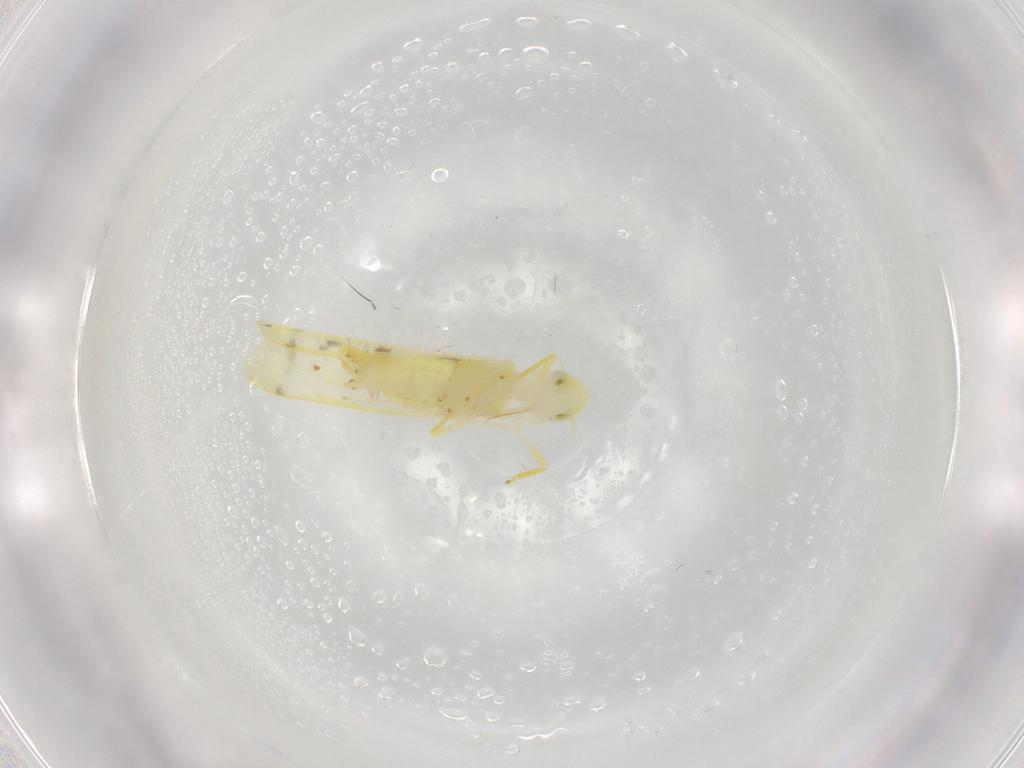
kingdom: Animalia
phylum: Arthropoda
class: Insecta
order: Hemiptera
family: Cicadellidae
